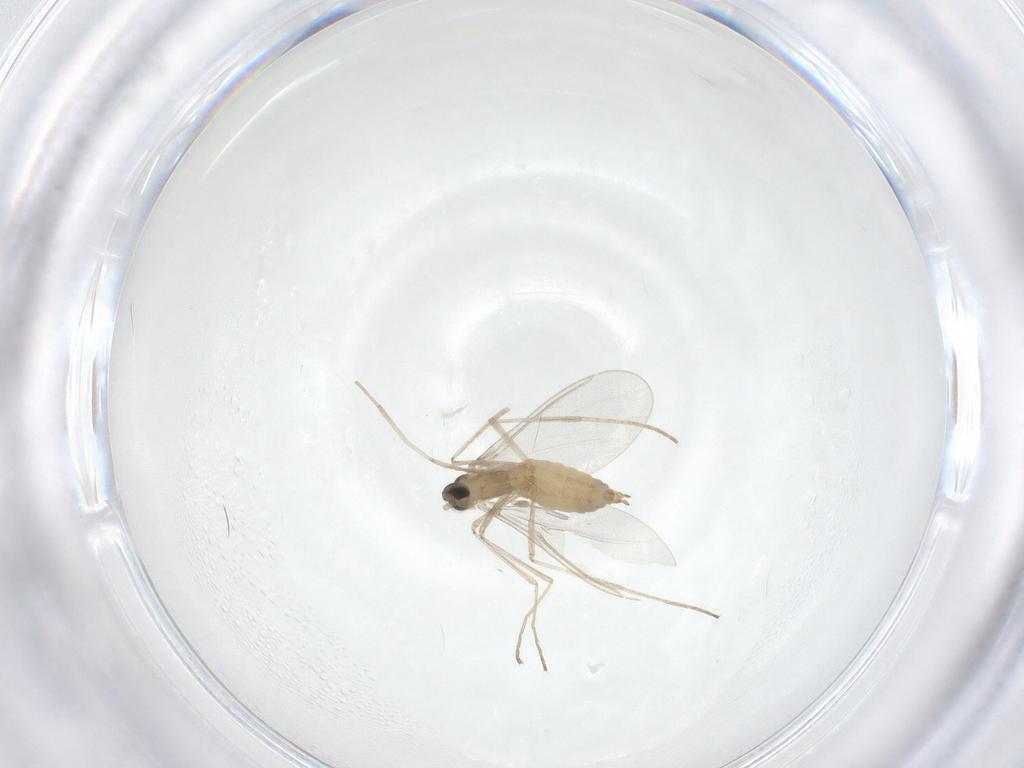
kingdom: Animalia
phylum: Arthropoda
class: Insecta
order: Diptera
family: Cecidomyiidae
